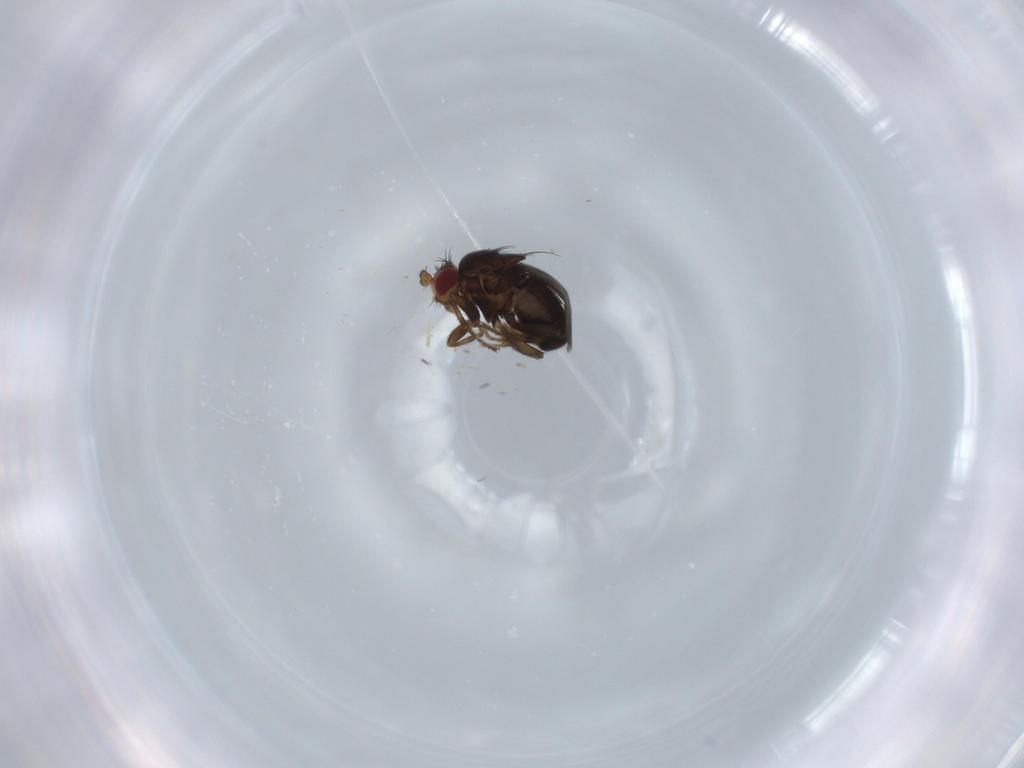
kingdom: Animalia
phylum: Arthropoda
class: Insecta
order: Diptera
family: Sphaeroceridae
